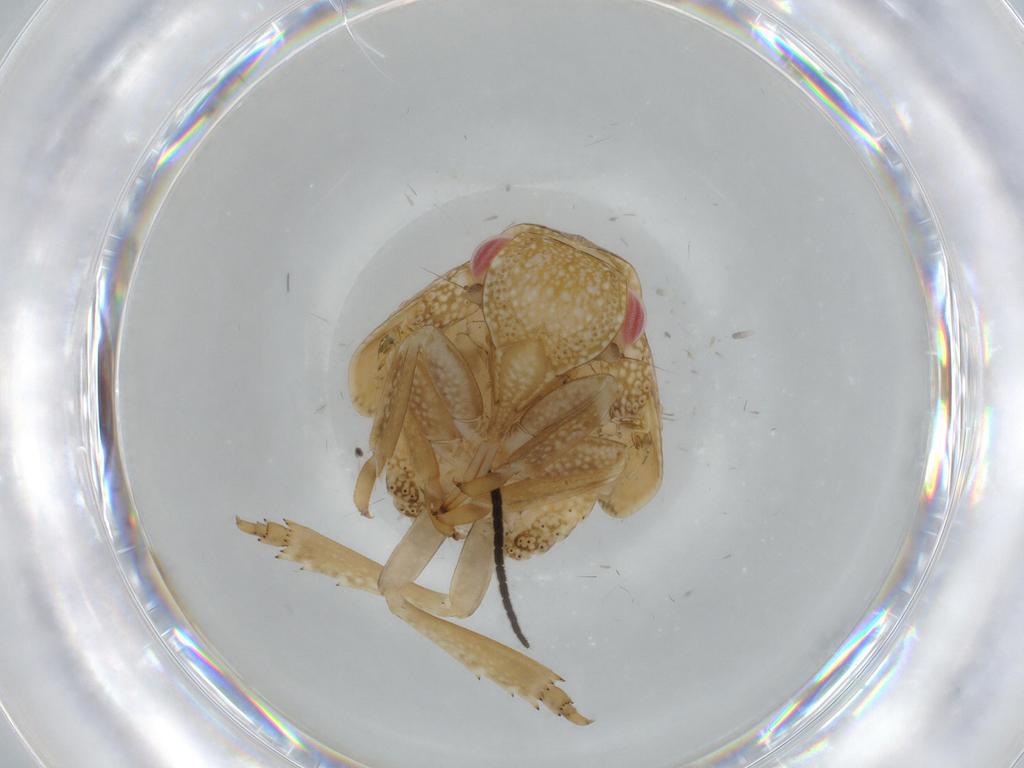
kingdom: Animalia
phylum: Arthropoda
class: Insecta
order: Hemiptera
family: Acanaloniidae
